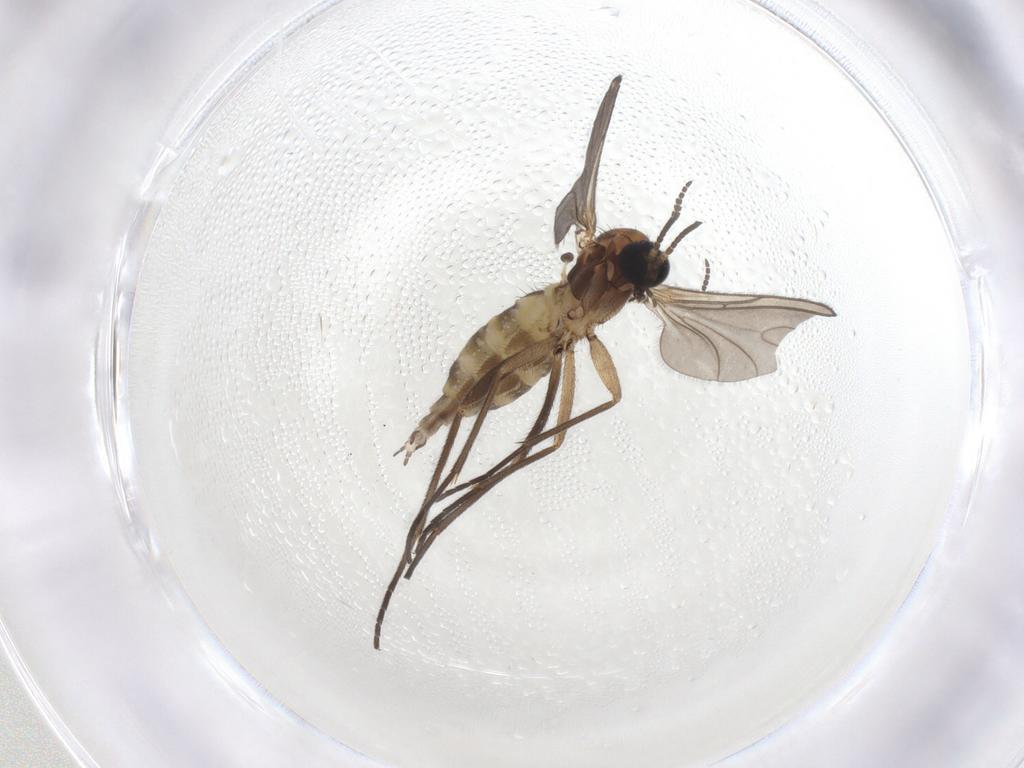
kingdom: Animalia
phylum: Arthropoda
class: Insecta
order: Diptera
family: Sciaridae
